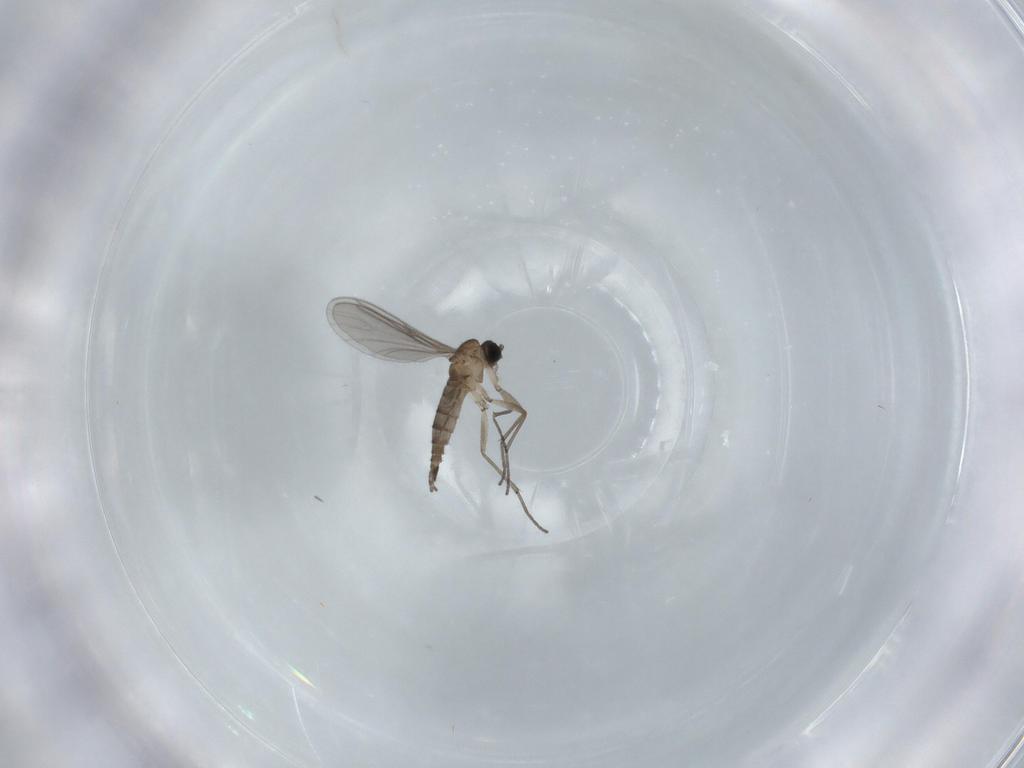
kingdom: Animalia
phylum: Arthropoda
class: Insecta
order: Diptera
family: Sciaridae
